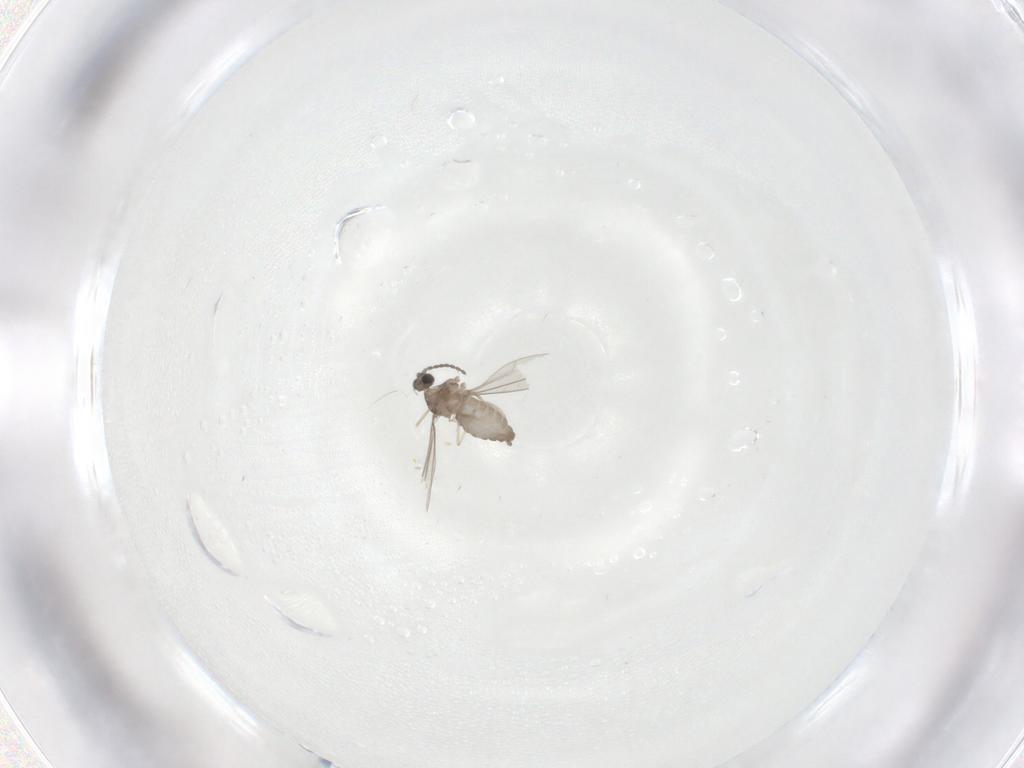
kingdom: Animalia
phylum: Arthropoda
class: Insecta
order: Diptera
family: Cecidomyiidae
